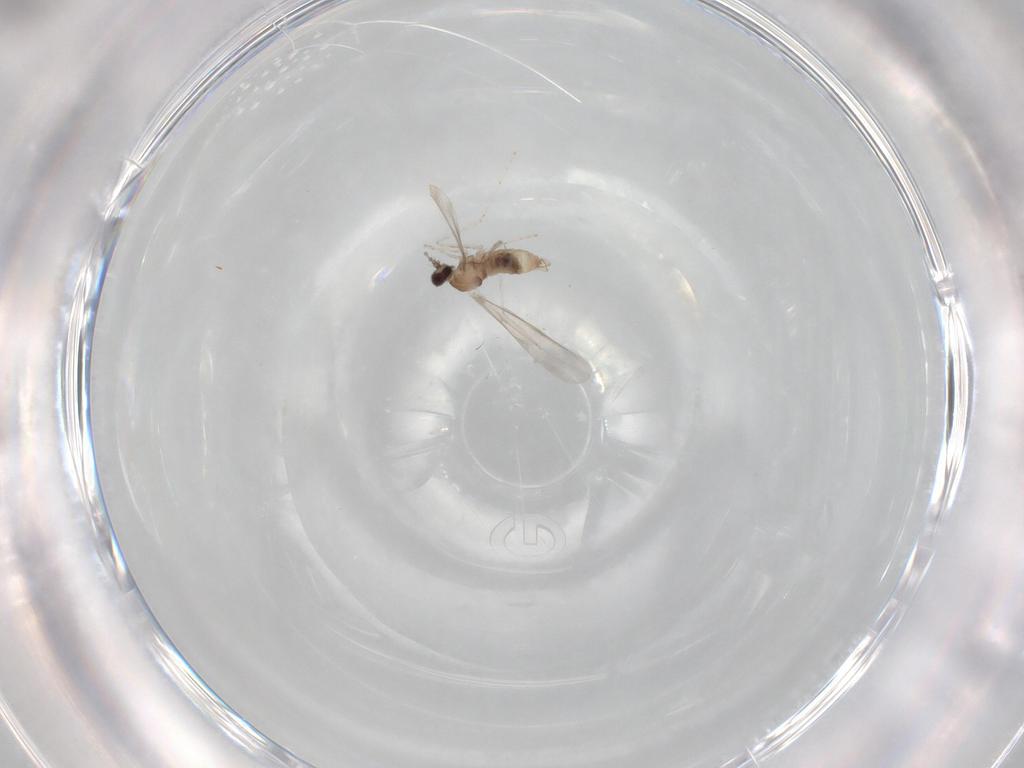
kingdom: Animalia
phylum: Arthropoda
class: Insecta
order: Diptera
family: Cecidomyiidae
